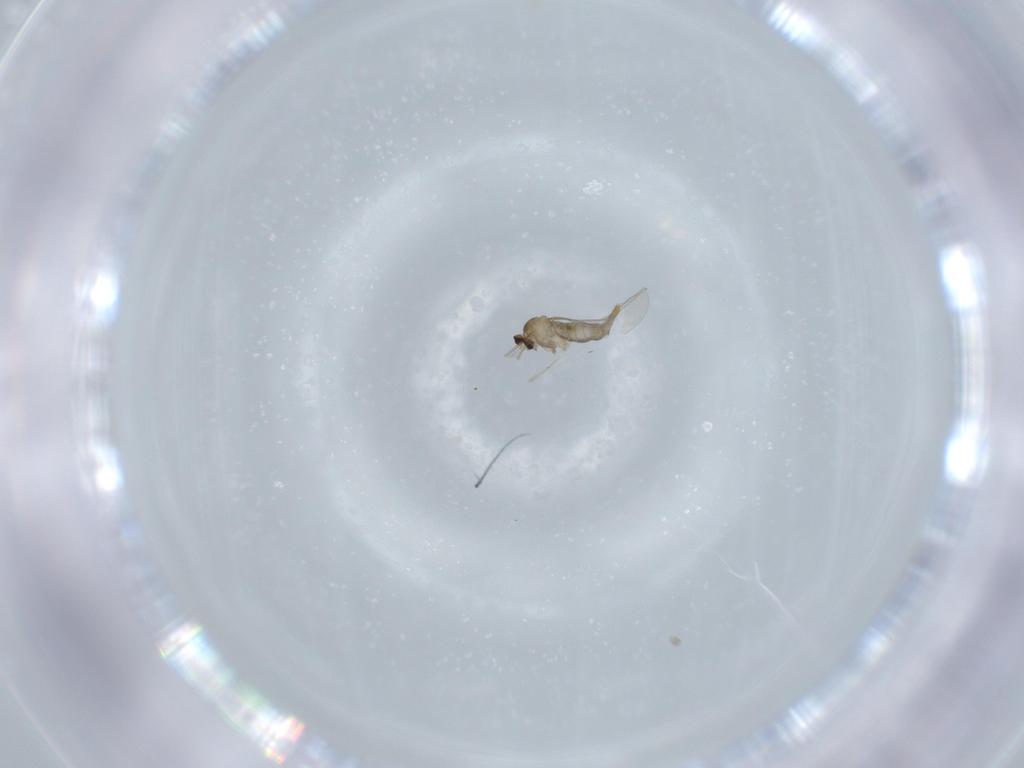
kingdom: Animalia
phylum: Arthropoda
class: Insecta
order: Diptera
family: Cecidomyiidae
